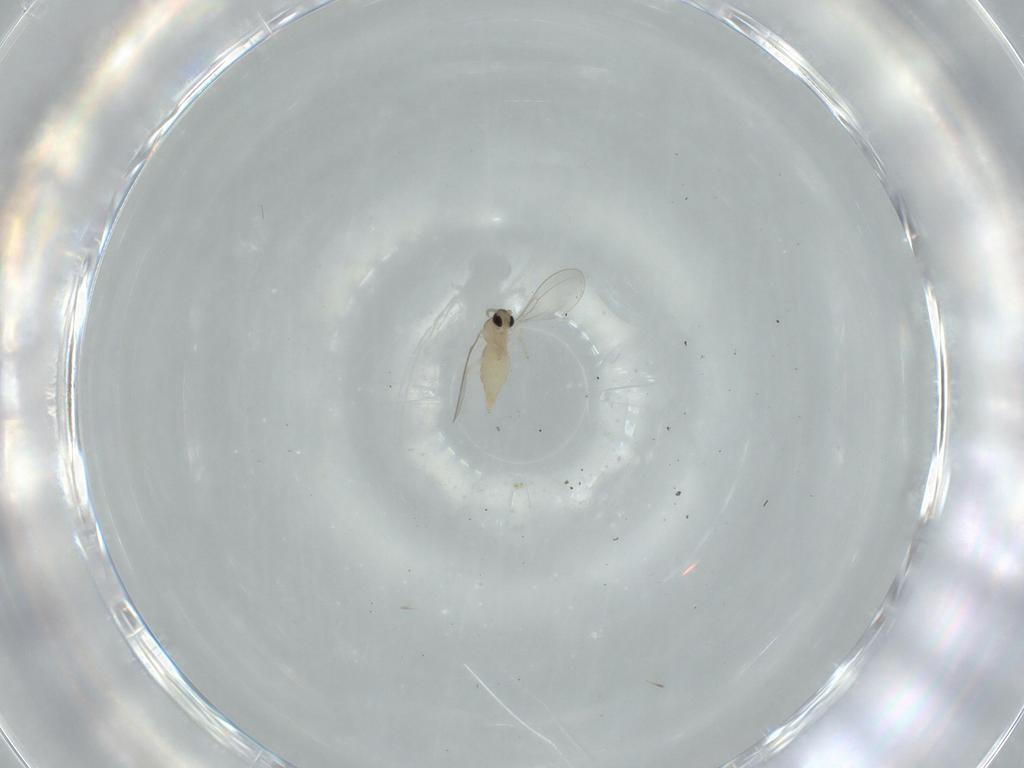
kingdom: Animalia
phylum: Arthropoda
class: Insecta
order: Diptera
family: Cecidomyiidae
